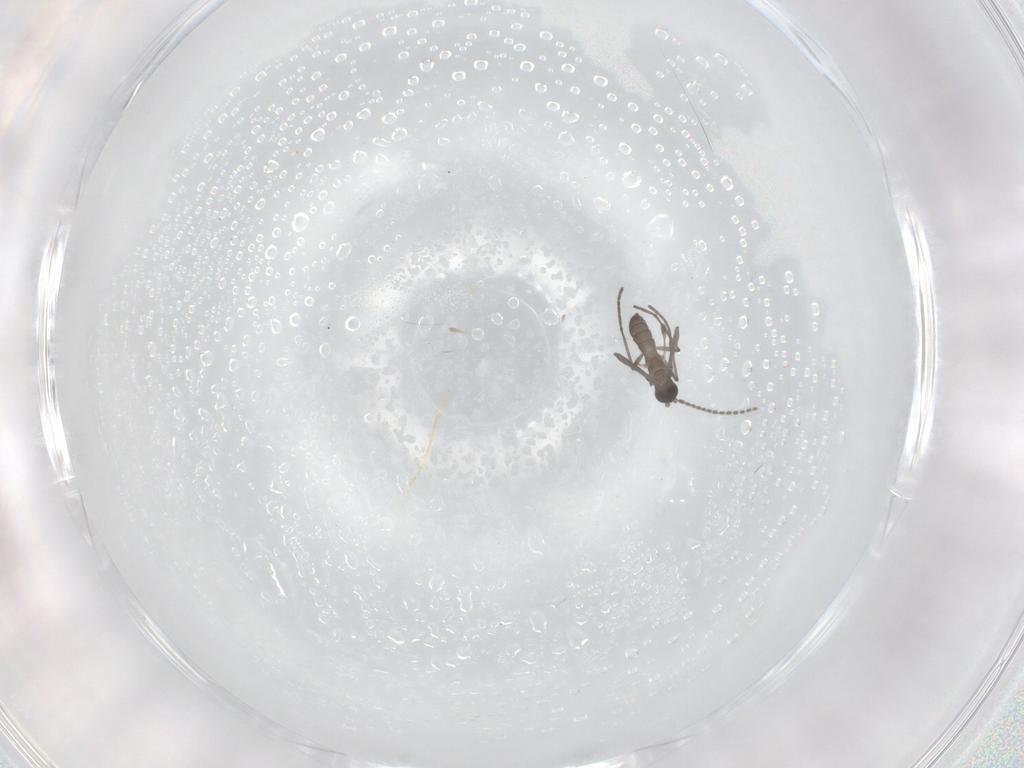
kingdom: Animalia
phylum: Arthropoda
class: Insecta
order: Diptera
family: Sciaridae
